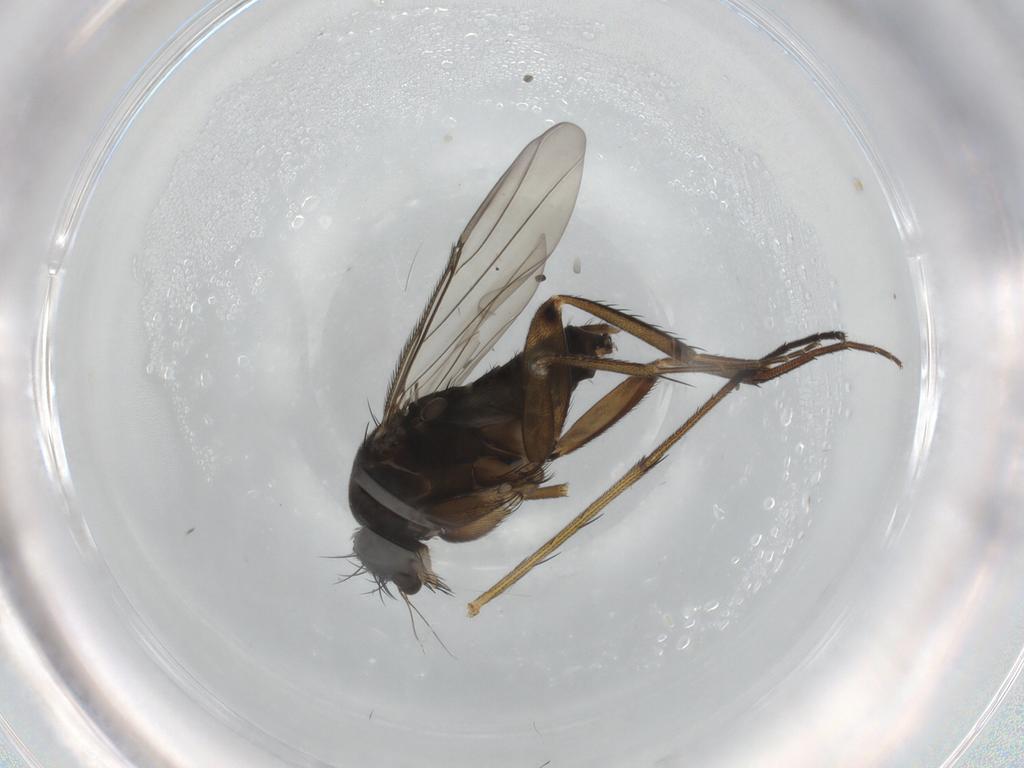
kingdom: Animalia
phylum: Arthropoda
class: Insecta
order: Diptera
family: Phoridae
